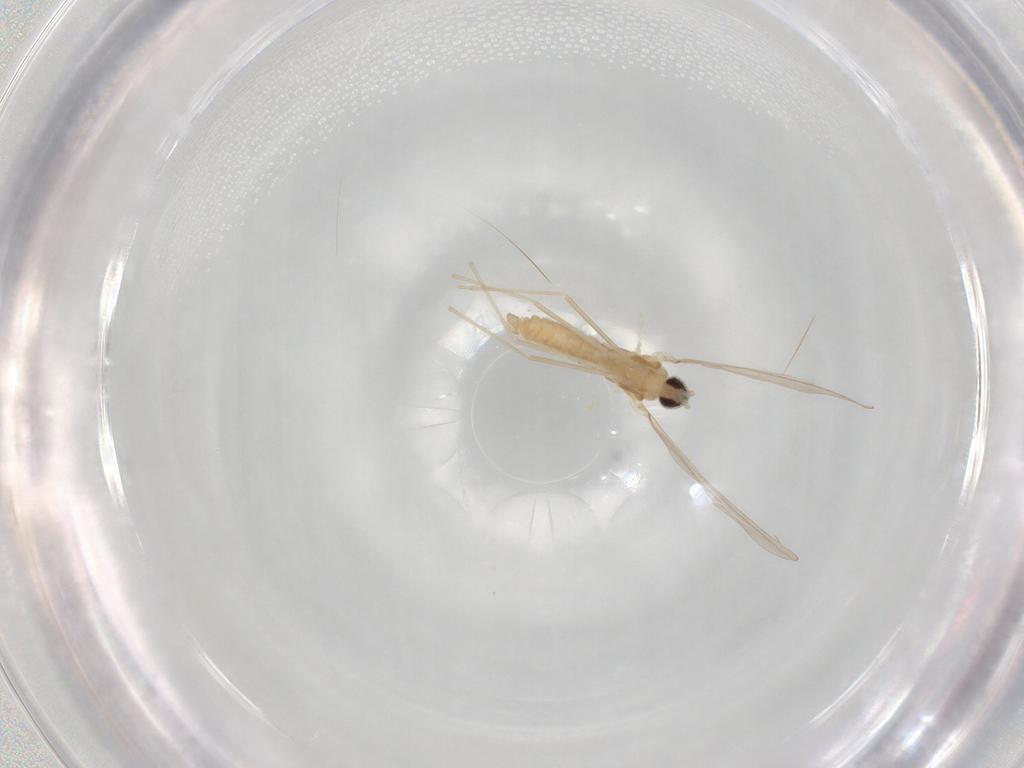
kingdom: Animalia
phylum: Arthropoda
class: Insecta
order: Diptera
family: Cecidomyiidae
